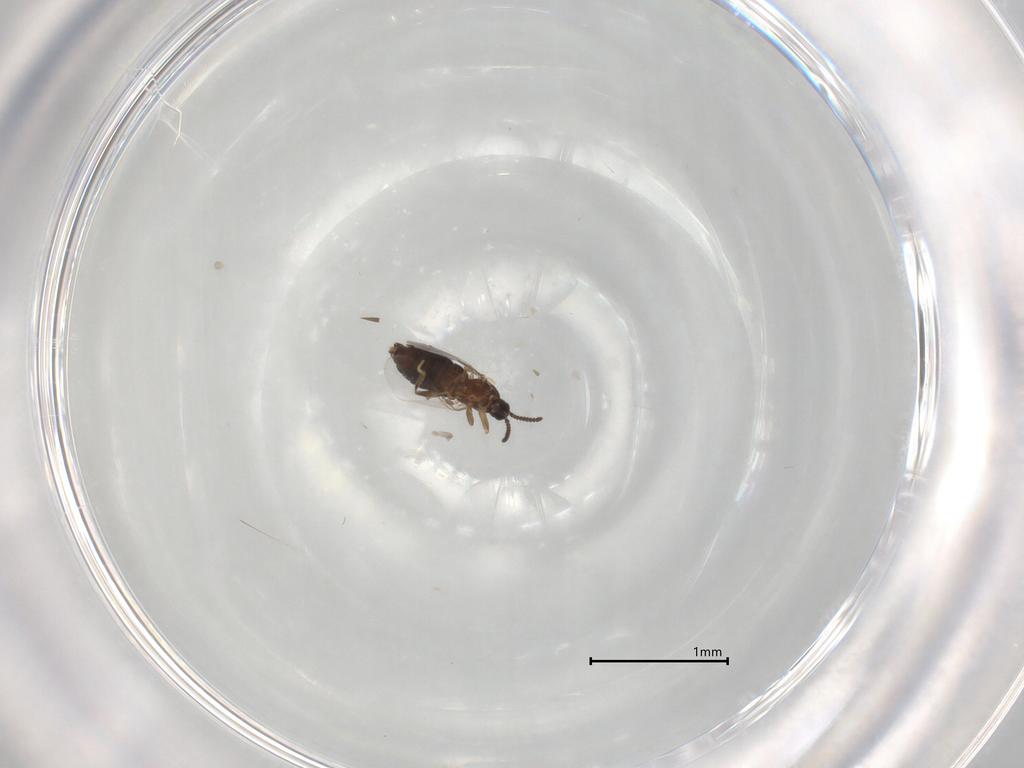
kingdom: Animalia
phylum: Arthropoda
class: Insecta
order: Diptera
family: Scatopsidae
